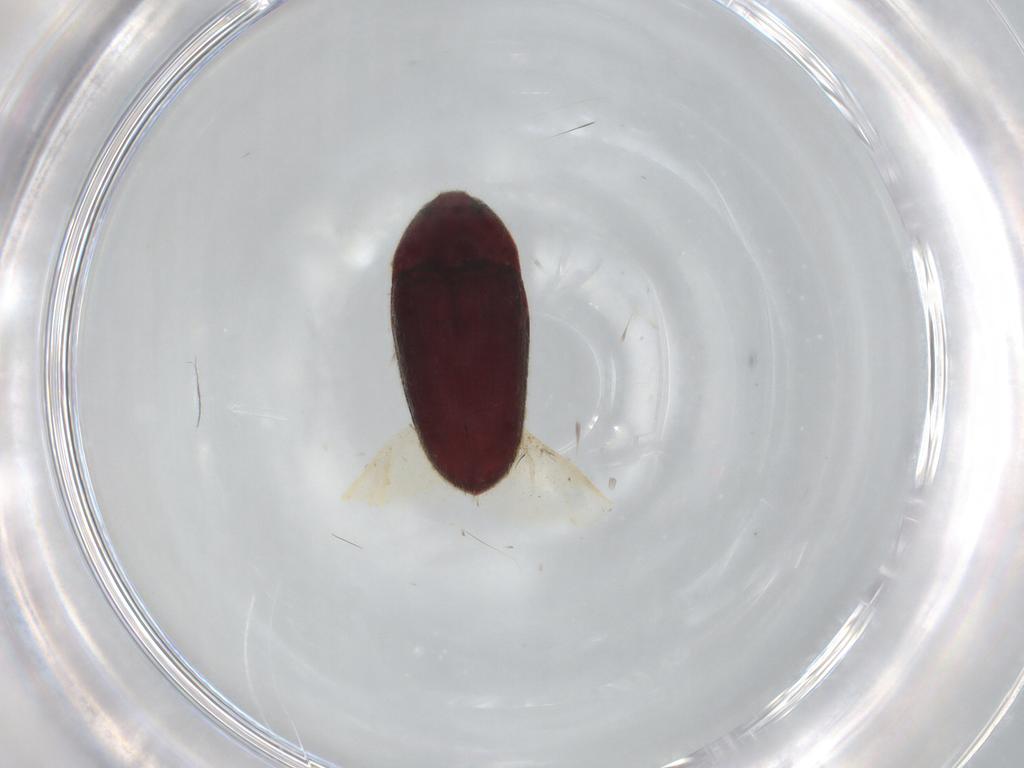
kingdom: Animalia
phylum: Arthropoda
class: Insecta
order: Coleoptera
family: Throscidae
